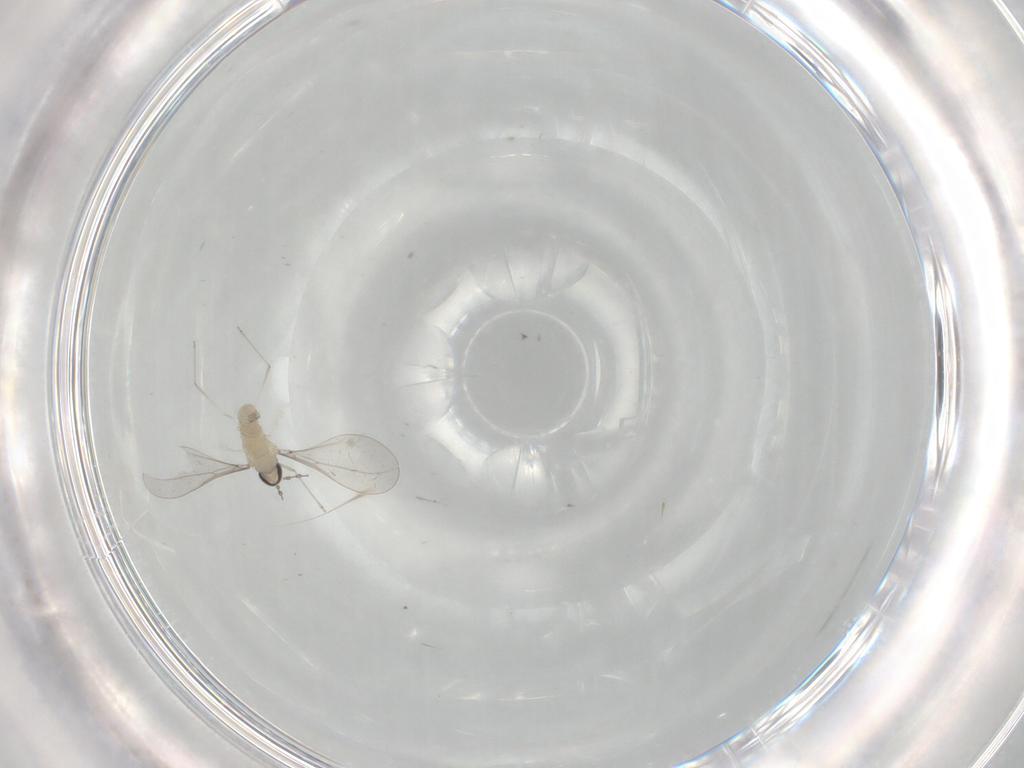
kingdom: Animalia
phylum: Arthropoda
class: Insecta
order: Diptera
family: Cecidomyiidae
